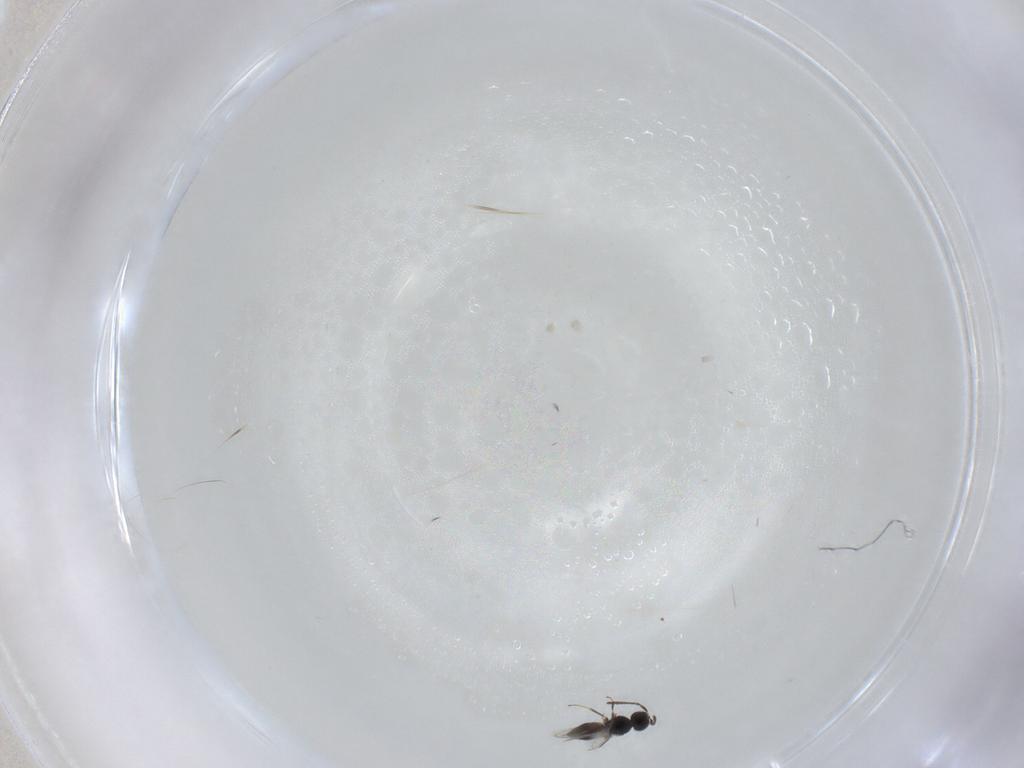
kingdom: Animalia
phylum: Arthropoda
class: Insecta
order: Hymenoptera
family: Scelionidae
